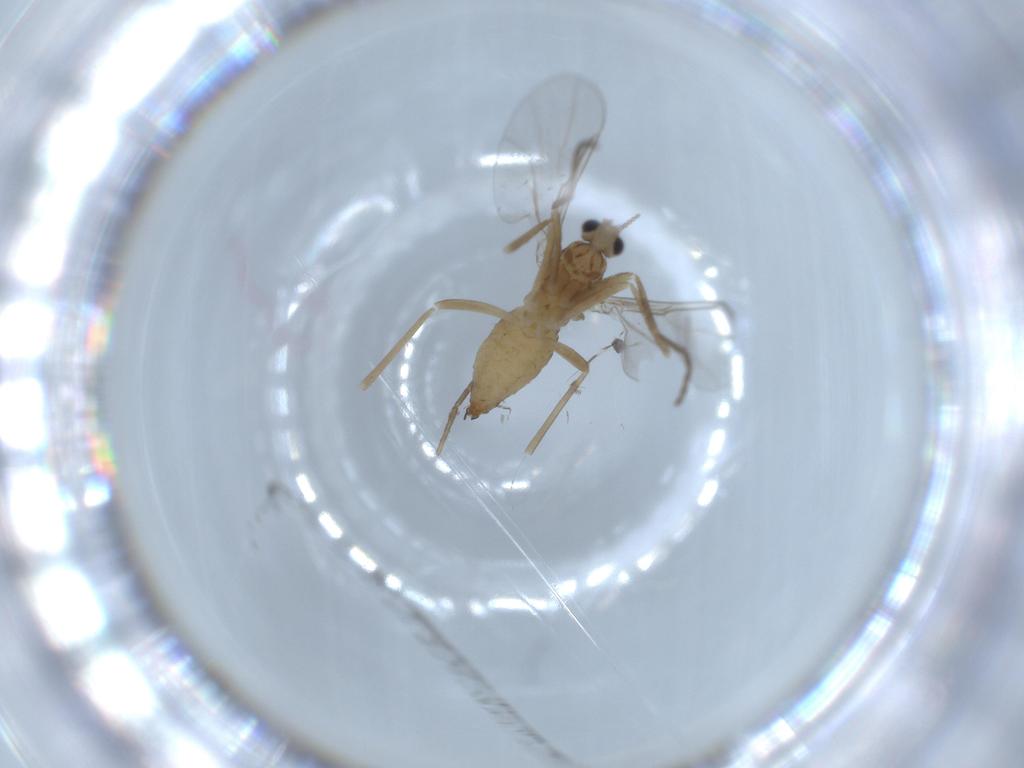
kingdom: Animalia
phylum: Arthropoda
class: Insecta
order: Diptera
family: Cecidomyiidae
